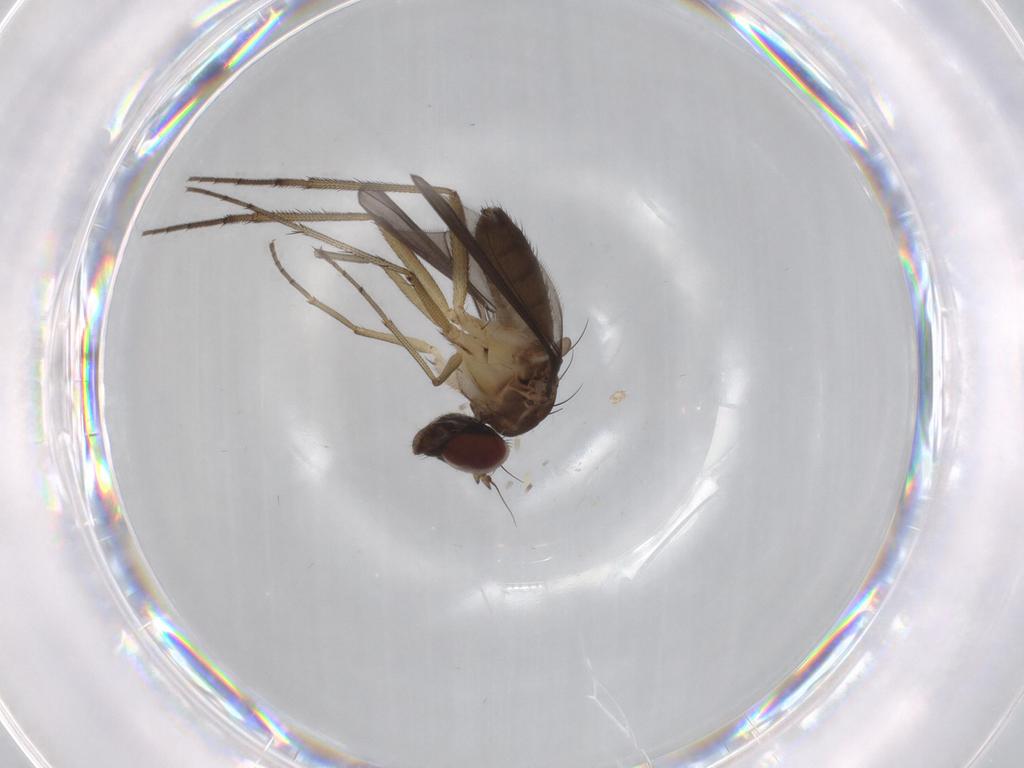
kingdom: Animalia
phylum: Arthropoda
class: Insecta
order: Diptera
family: Dolichopodidae
